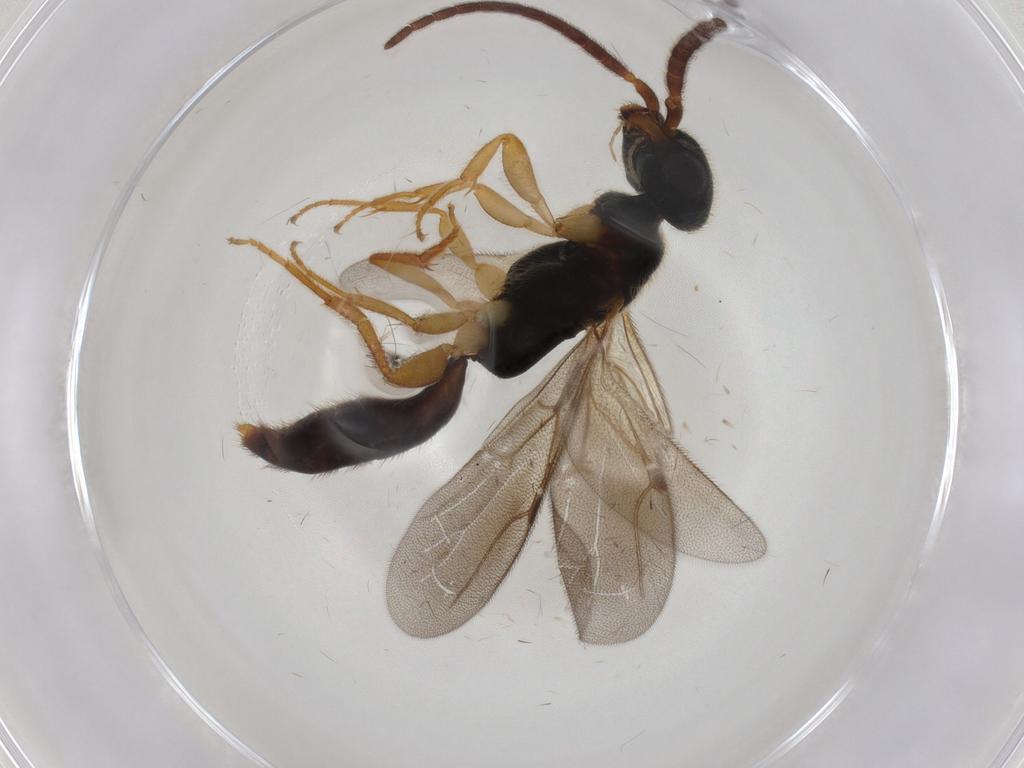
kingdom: Animalia
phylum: Arthropoda
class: Insecta
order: Hymenoptera
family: Bethylidae
